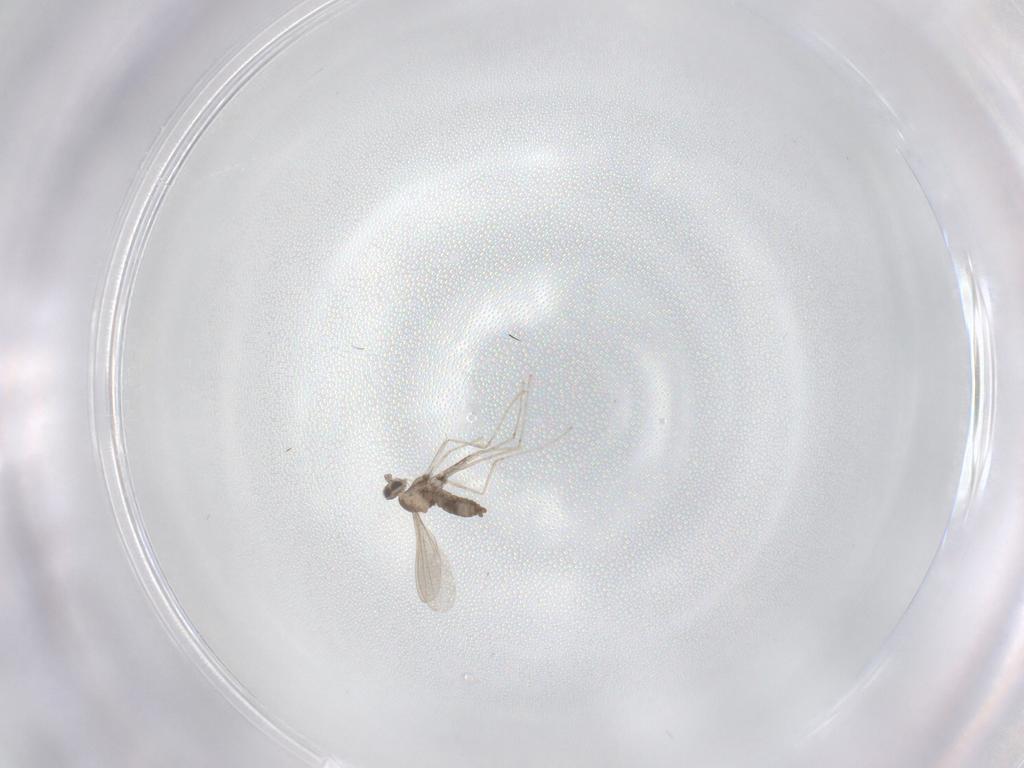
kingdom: Animalia
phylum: Arthropoda
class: Insecta
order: Diptera
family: Cecidomyiidae
